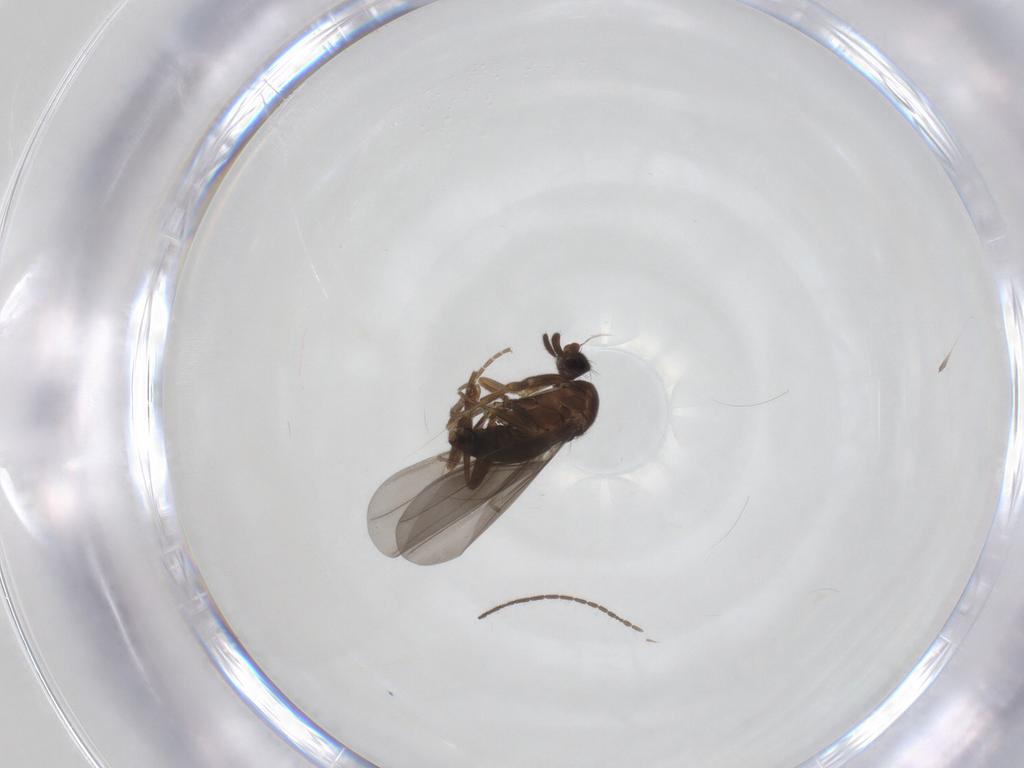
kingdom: Animalia
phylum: Arthropoda
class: Insecta
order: Diptera
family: Mycetophilidae
